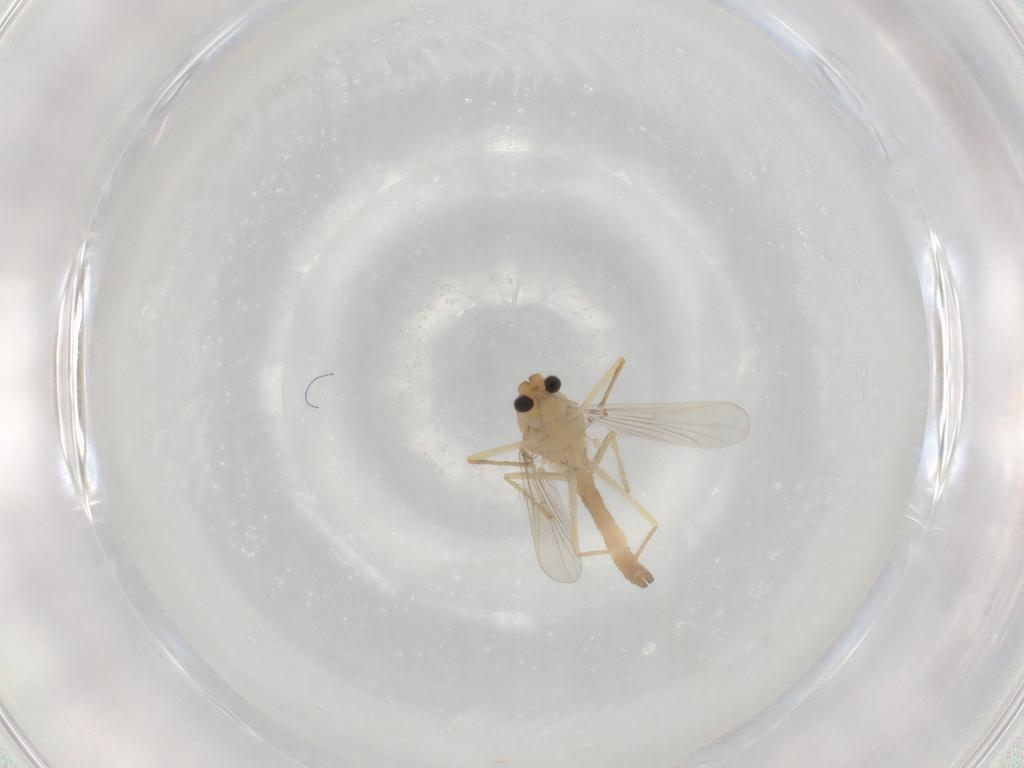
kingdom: Animalia
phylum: Arthropoda
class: Insecta
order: Diptera
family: Chironomidae
